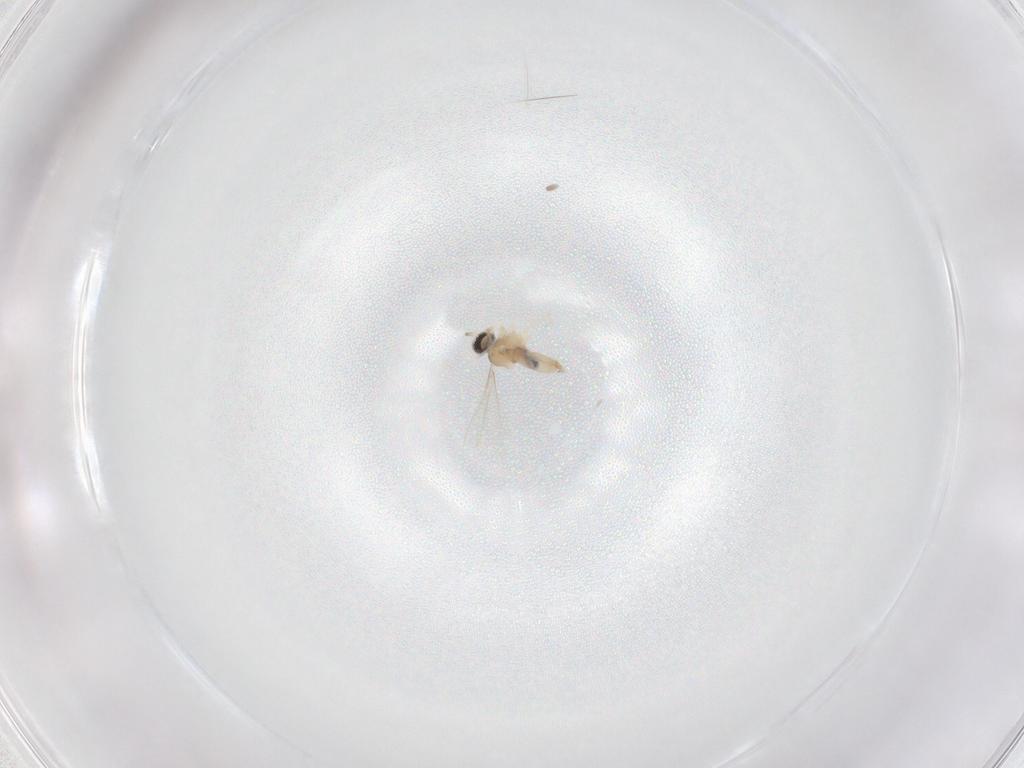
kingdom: Animalia
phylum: Arthropoda
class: Insecta
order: Diptera
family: Cecidomyiidae
